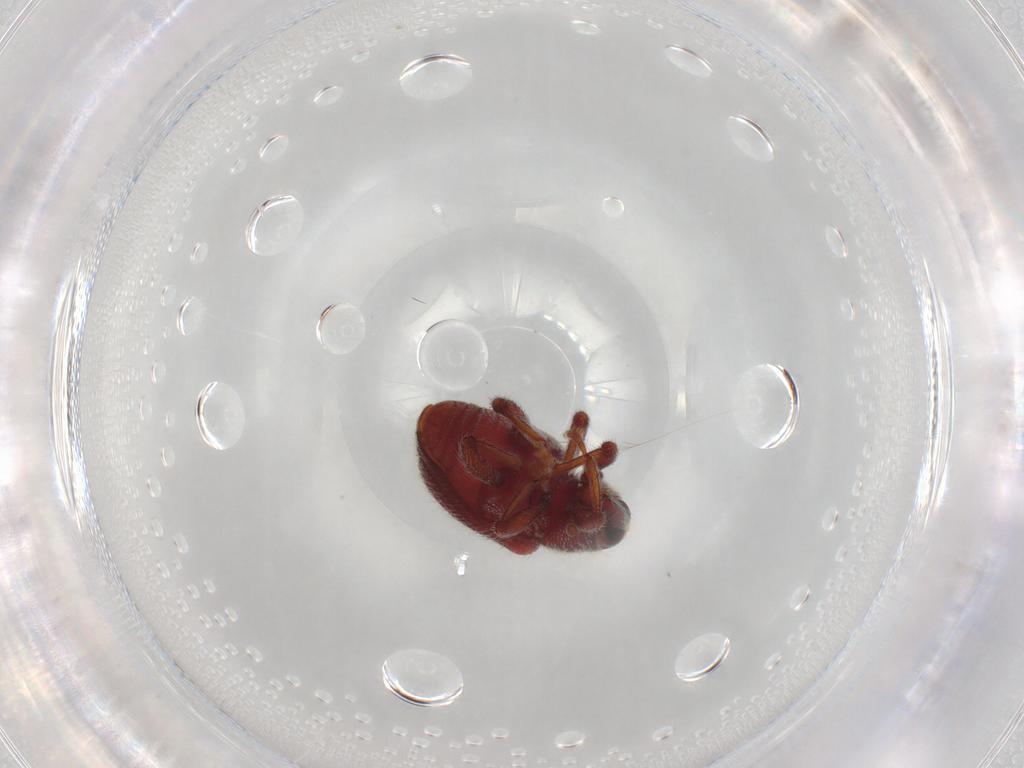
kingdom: Animalia
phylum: Arthropoda
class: Insecta
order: Coleoptera
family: Curculionidae
